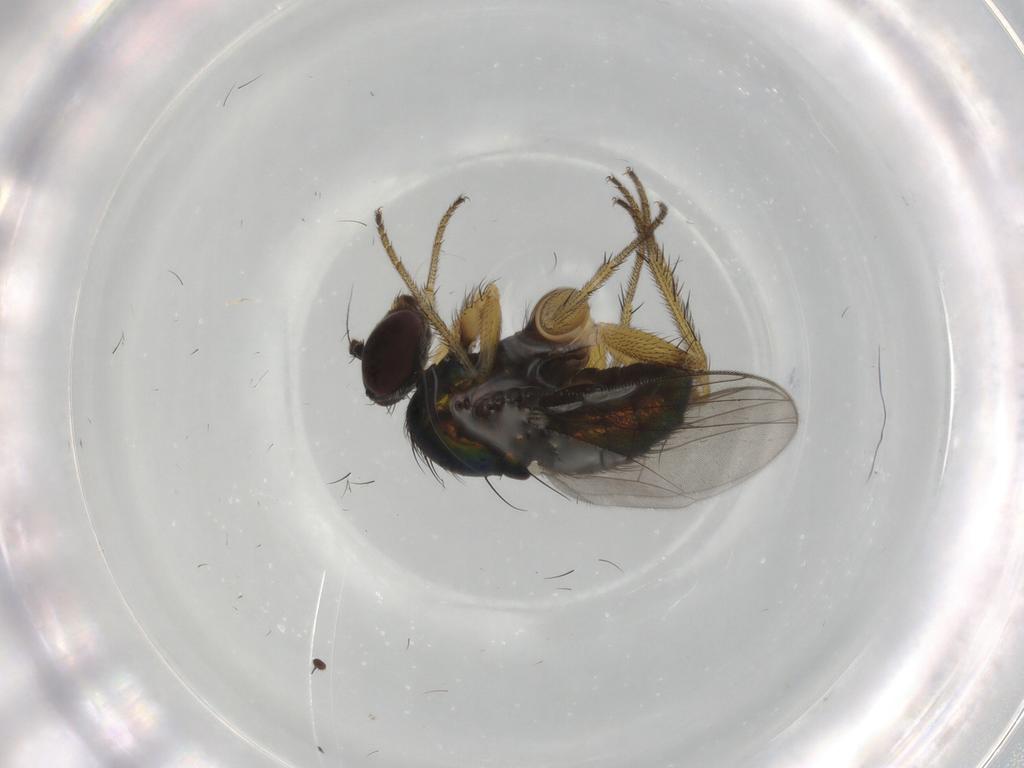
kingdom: Animalia
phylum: Arthropoda
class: Insecta
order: Diptera
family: Dolichopodidae
